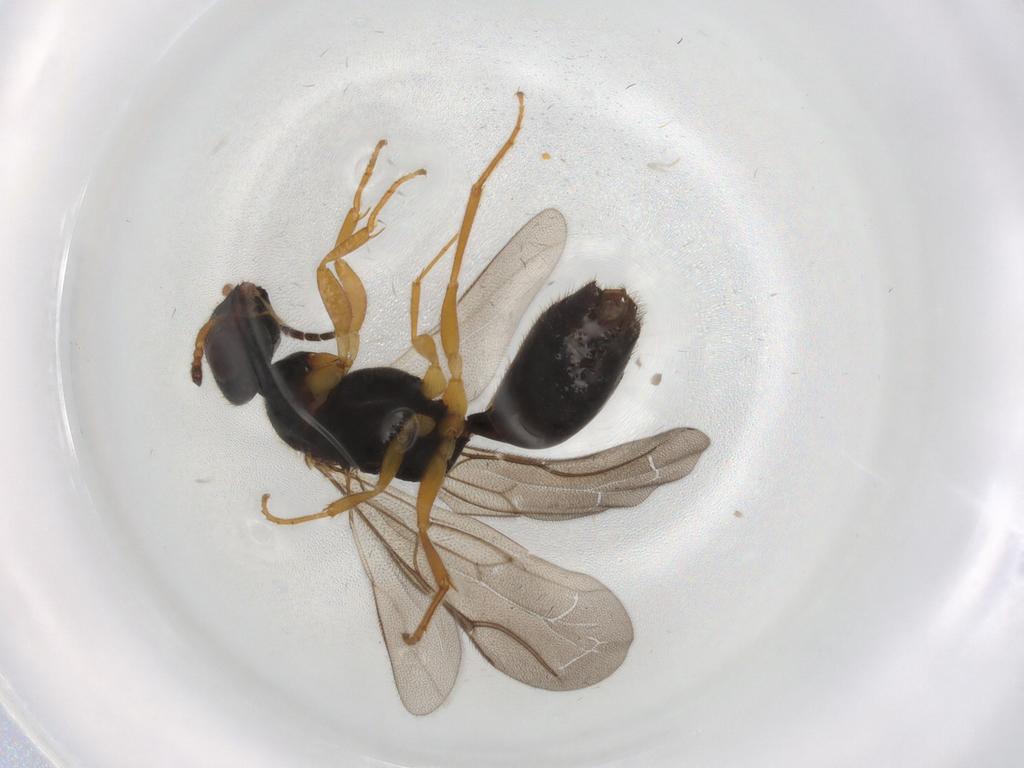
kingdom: Animalia
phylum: Arthropoda
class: Insecta
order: Hymenoptera
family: Bethylidae
